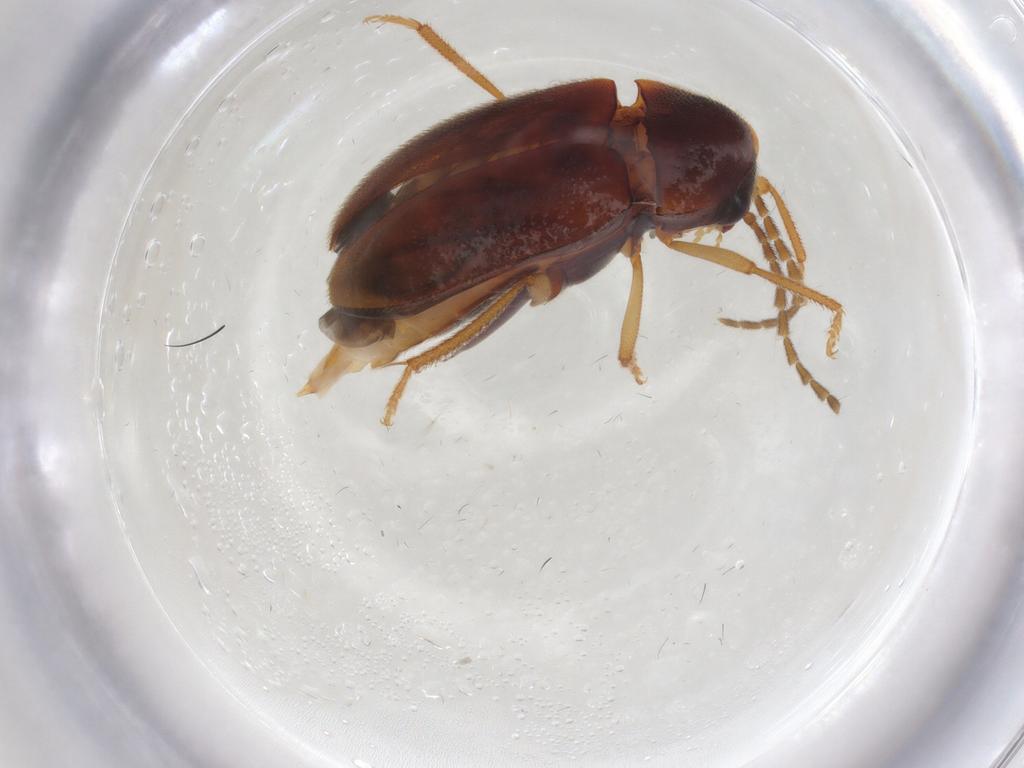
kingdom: Animalia
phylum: Arthropoda
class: Insecta
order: Coleoptera
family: Ptilodactylidae
